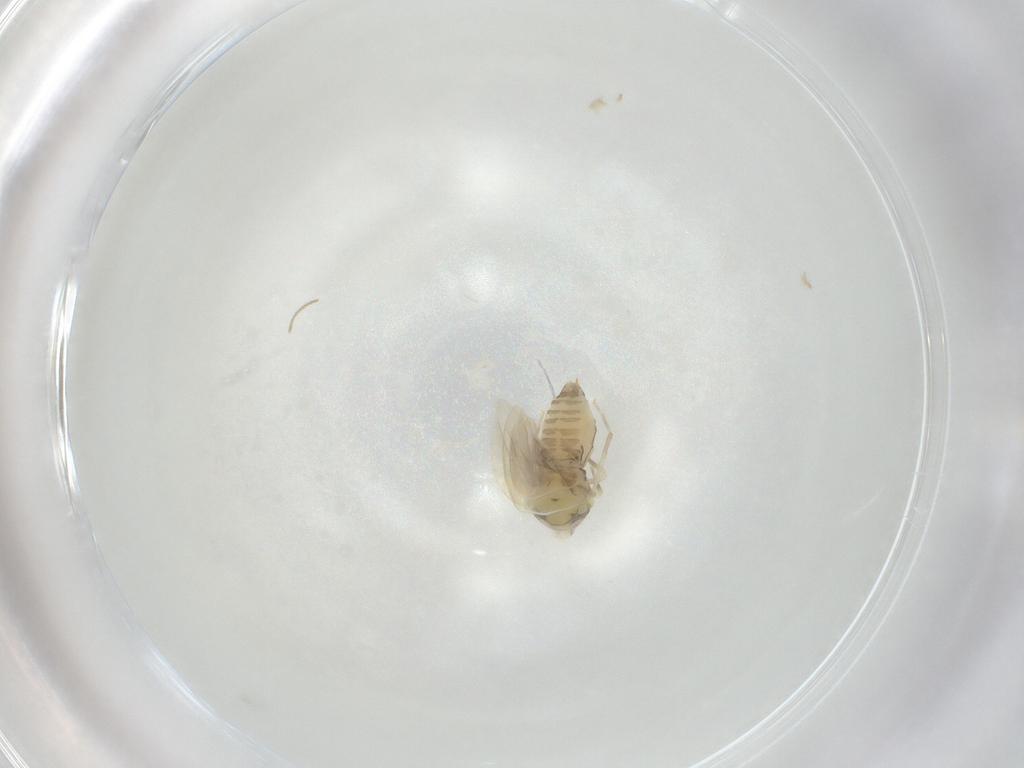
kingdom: Animalia
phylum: Arthropoda
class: Insecta
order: Hemiptera
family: Aleyrodidae
